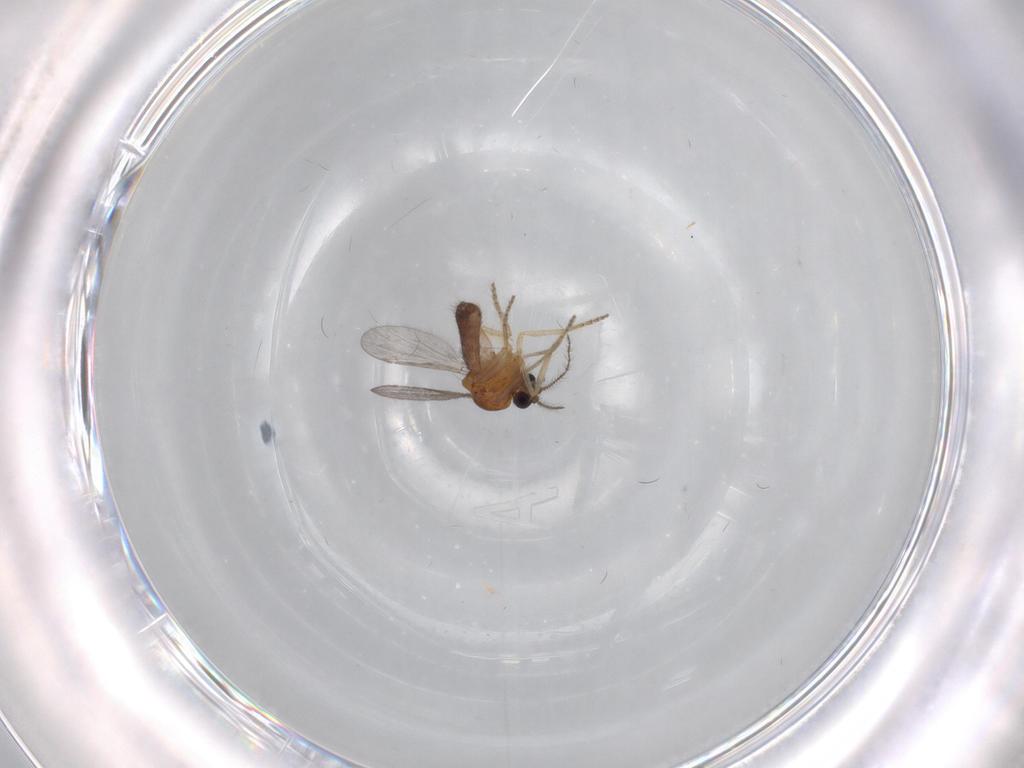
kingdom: Animalia
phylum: Arthropoda
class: Insecta
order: Diptera
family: Ceratopogonidae
